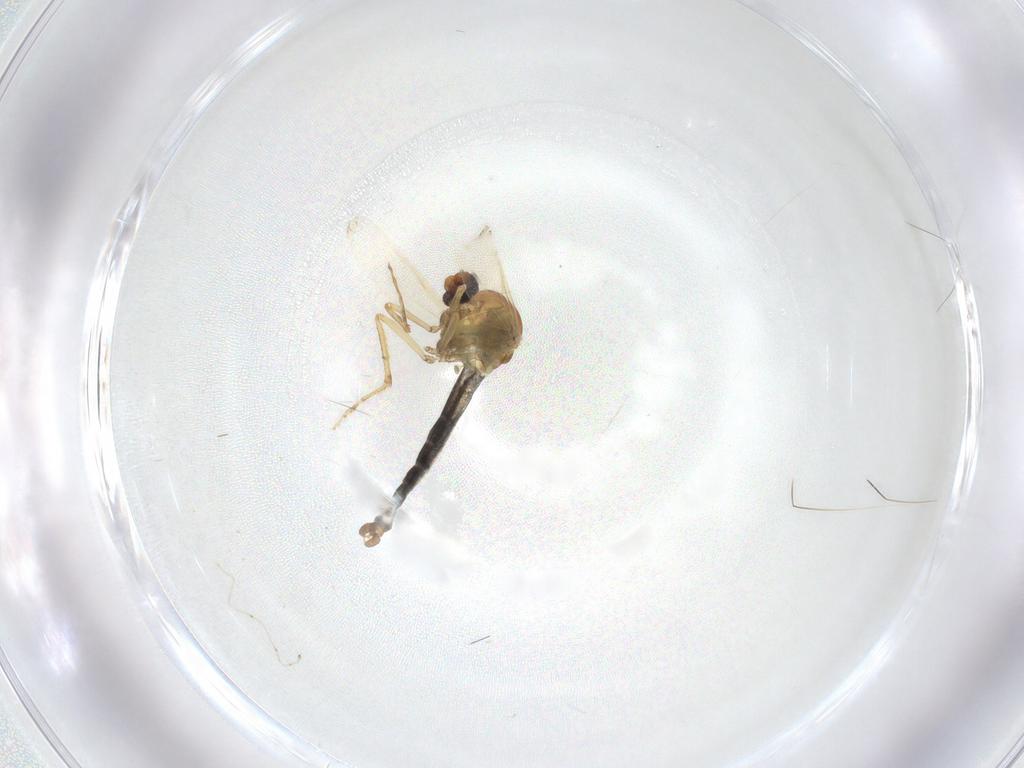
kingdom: Animalia
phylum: Arthropoda
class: Insecta
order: Diptera
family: Ceratopogonidae
